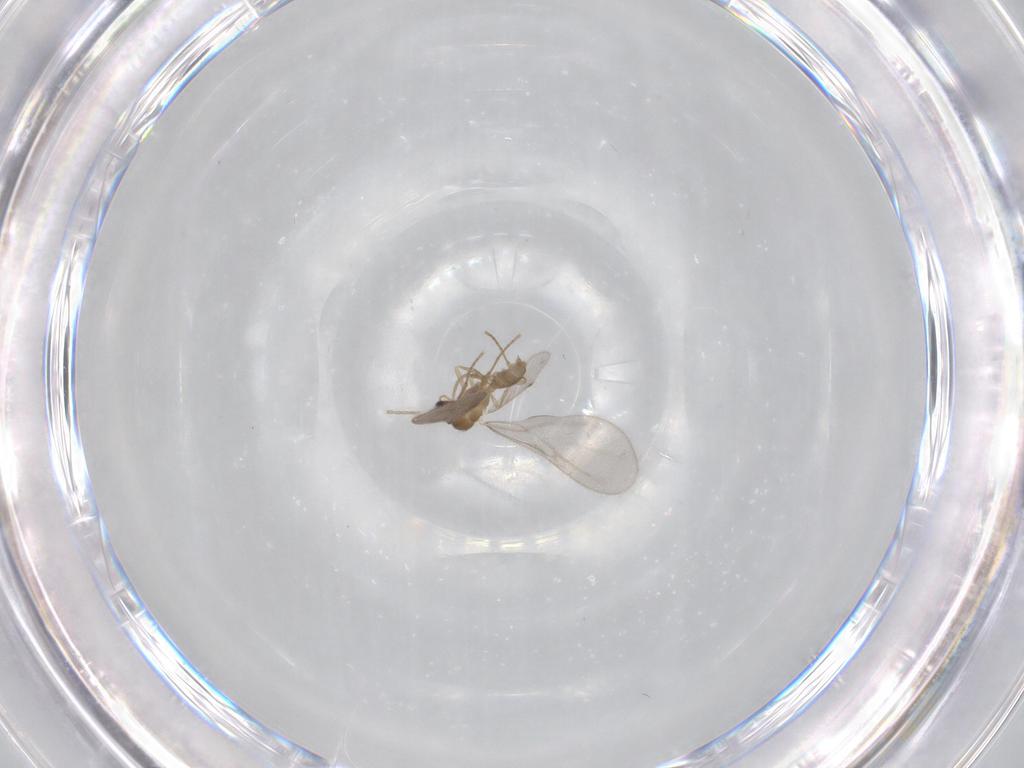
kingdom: Animalia
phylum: Arthropoda
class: Insecta
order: Hymenoptera
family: Formicidae
